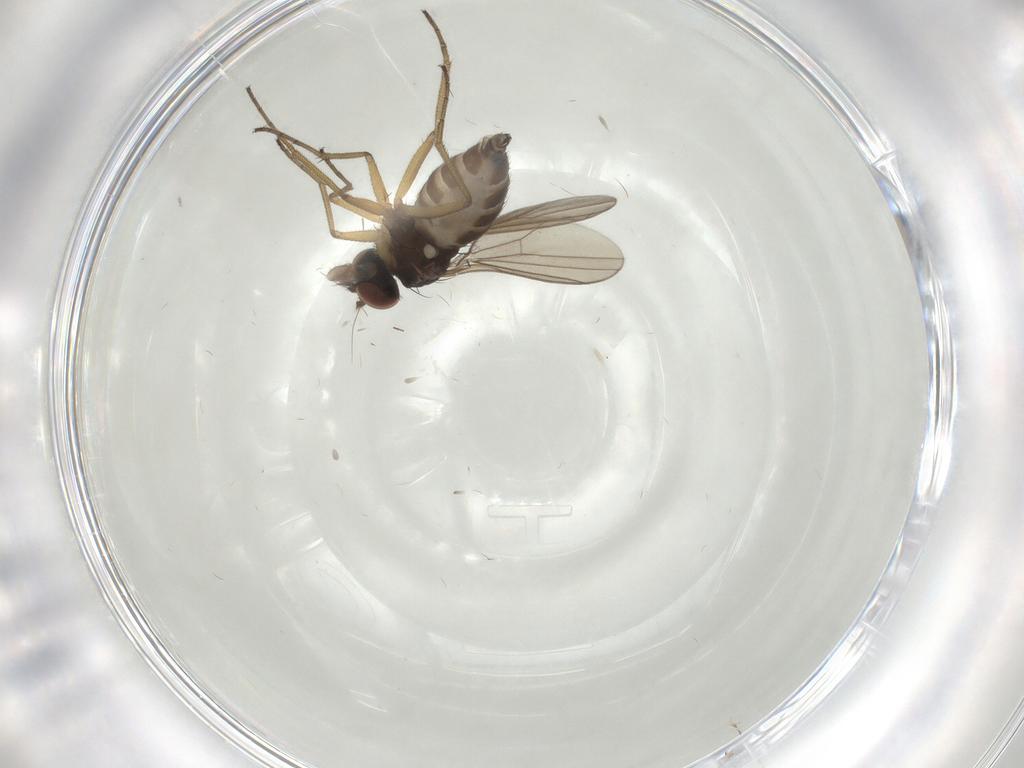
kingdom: Animalia
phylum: Arthropoda
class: Insecta
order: Diptera
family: Dolichopodidae
